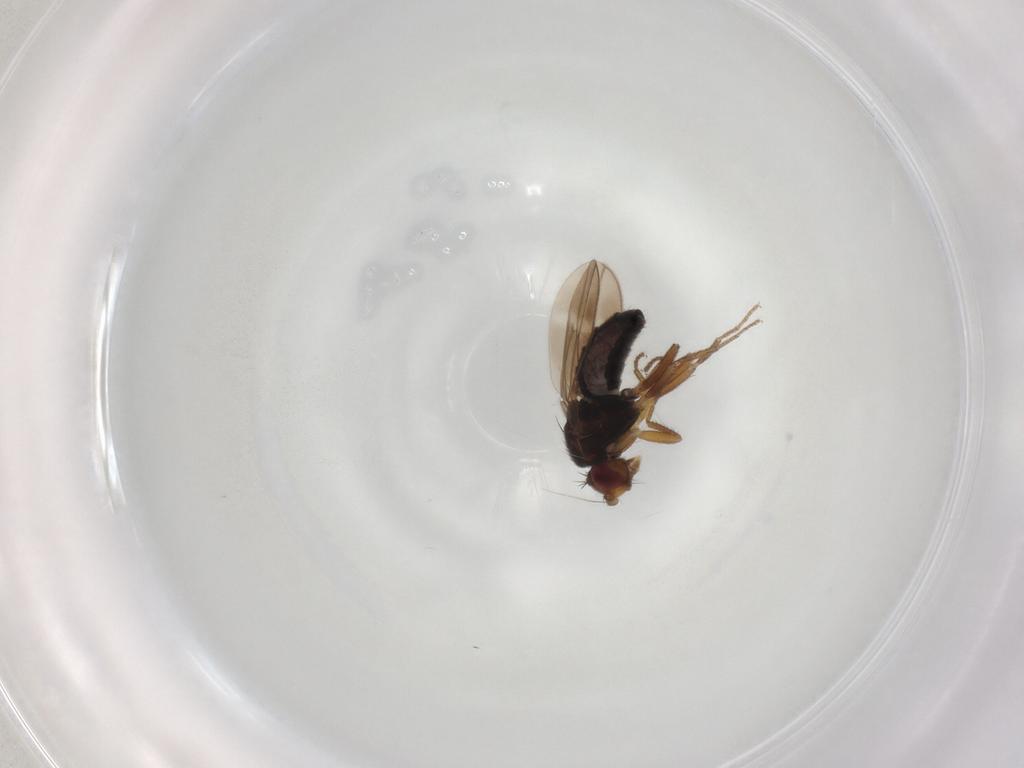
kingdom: Animalia
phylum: Arthropoda
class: Insecta
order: Diptera
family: Sphaeroceridae
